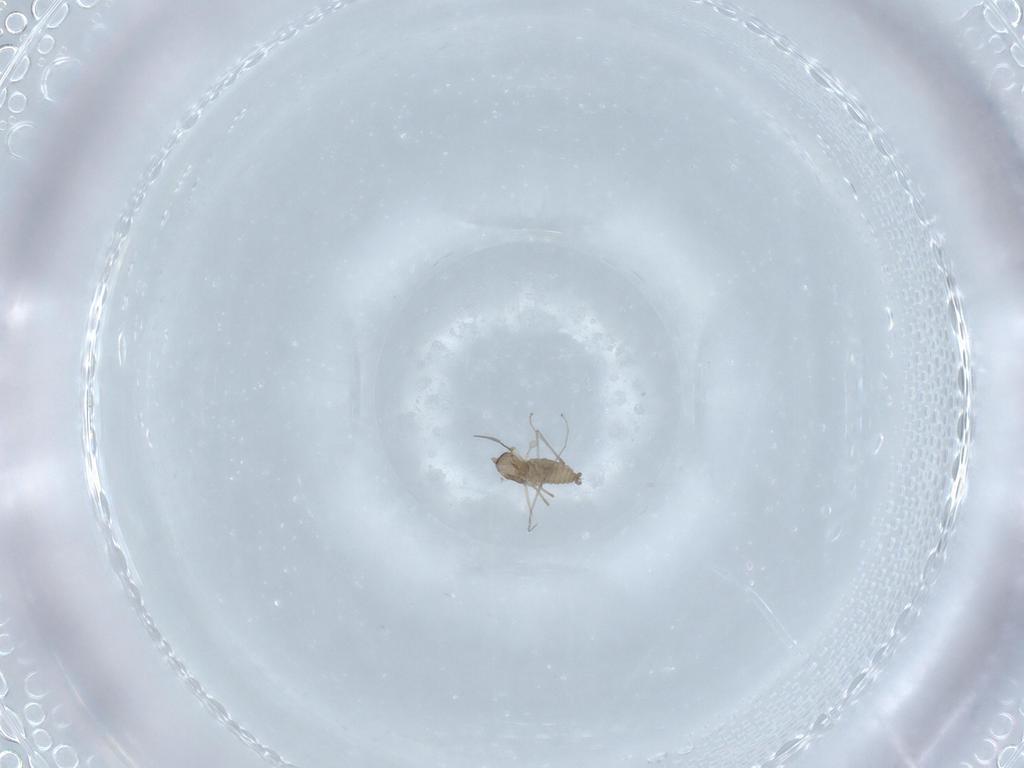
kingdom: Animalia
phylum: Arthropoda
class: Insecta
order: Diptera
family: Cecidomyiidae
